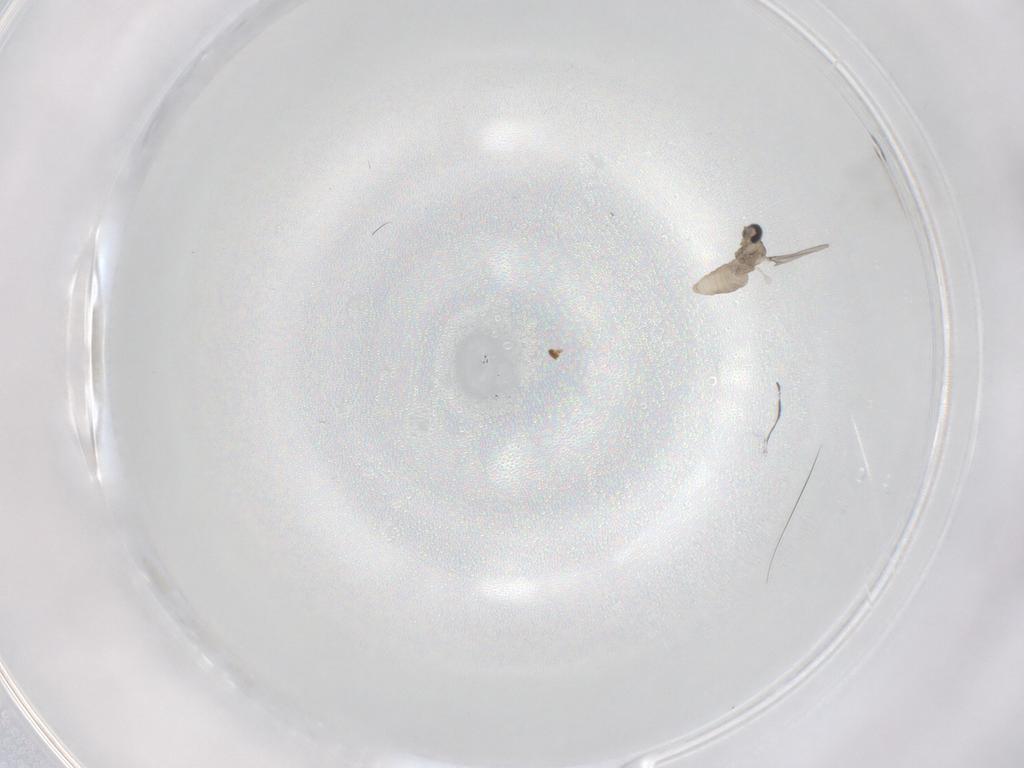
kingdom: Animalia
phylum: Arthropoda
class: Insecta
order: Diptera
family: Cecidomyiidae
